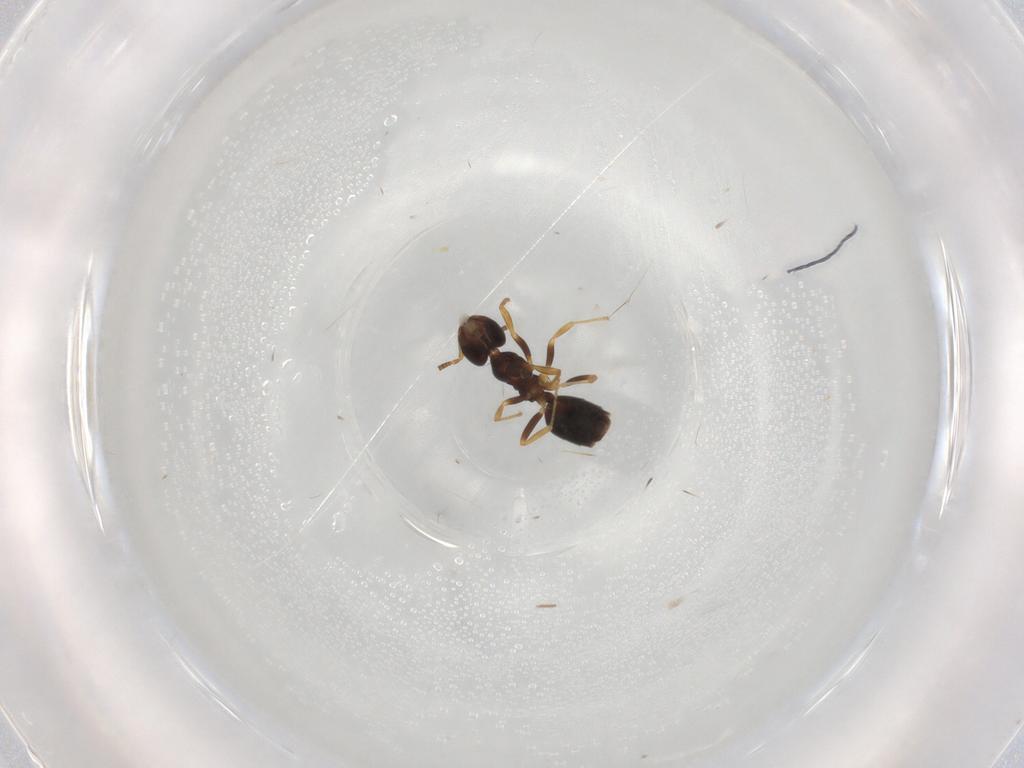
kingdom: Animalia
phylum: Arthropoda
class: Insecta
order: Hymenoptera
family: Formicidae
